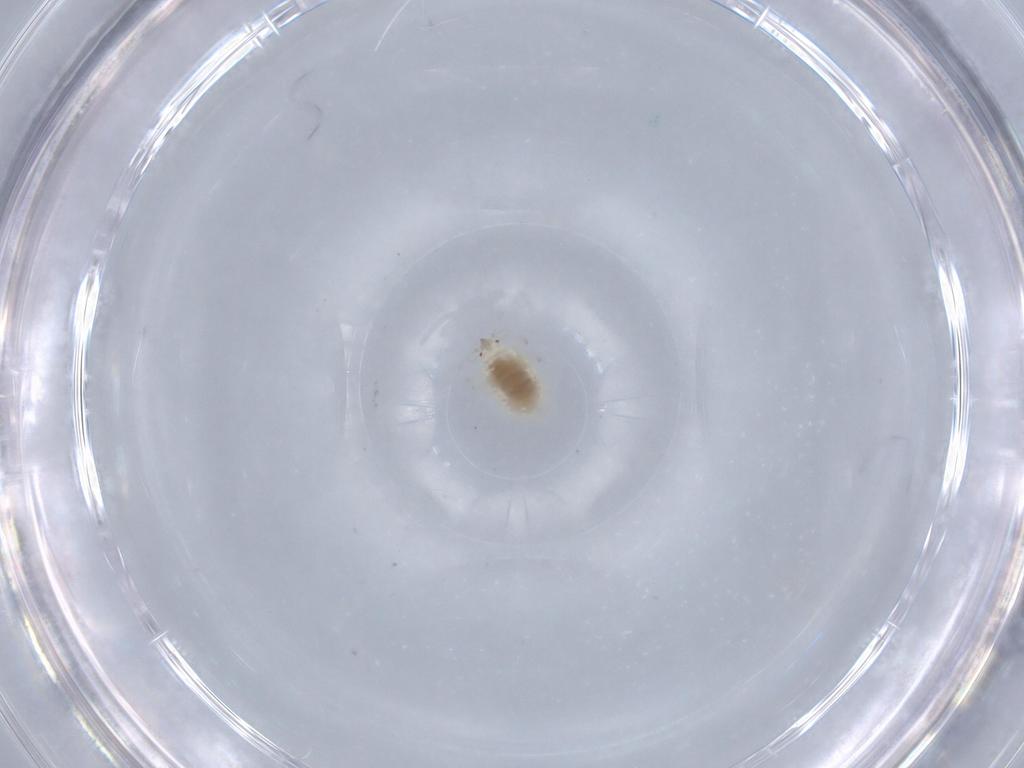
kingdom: Animalia
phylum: Arthropoda
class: Insecta
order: Neuroptera
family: Coniopterygidae
